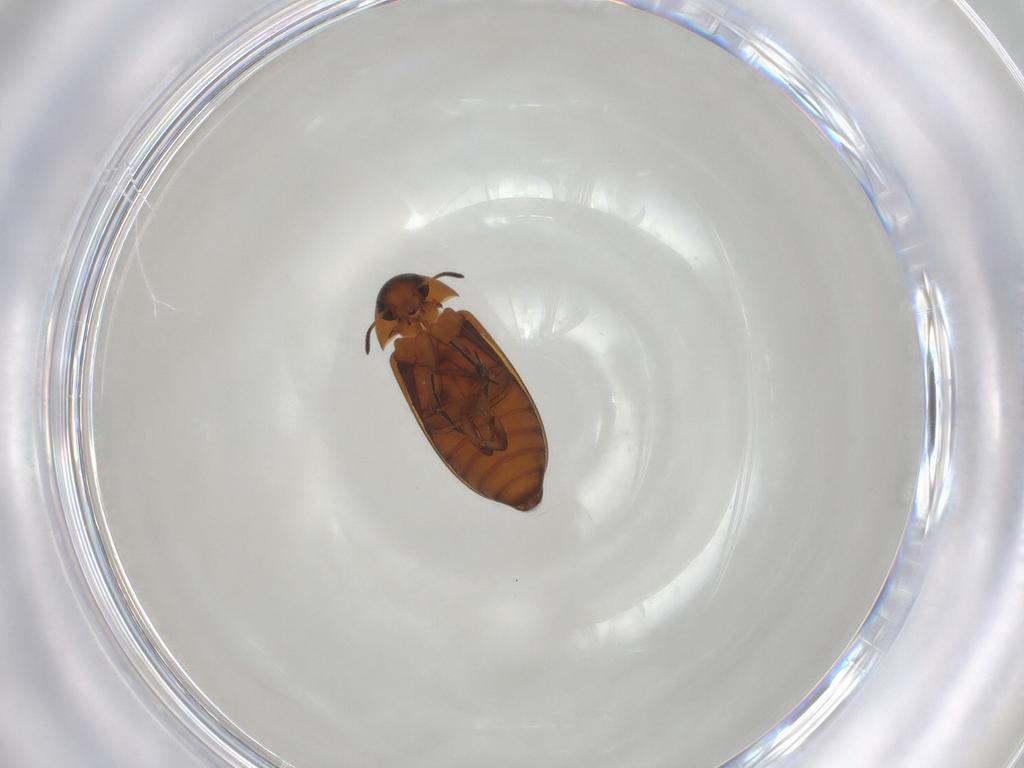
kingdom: Animalia
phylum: Arthropoda
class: Insecta
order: Coleoptera
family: Scraptiidae
